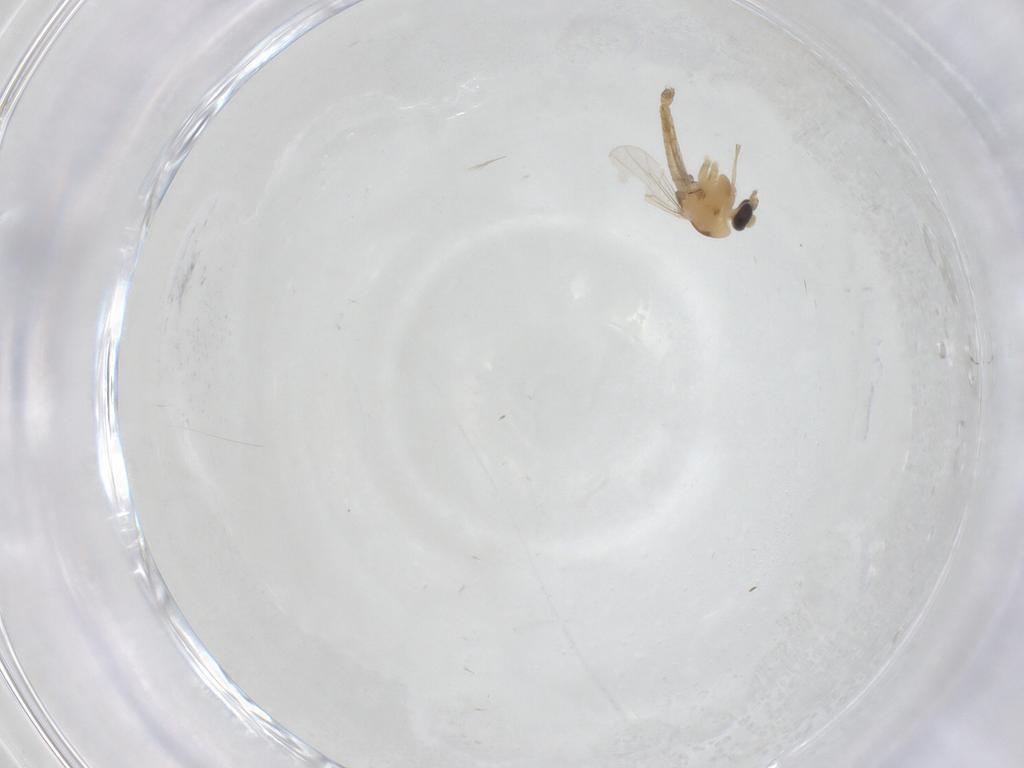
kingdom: Animalia
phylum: Arthropoda
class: Insecta
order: Diptera
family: Chironomidae
